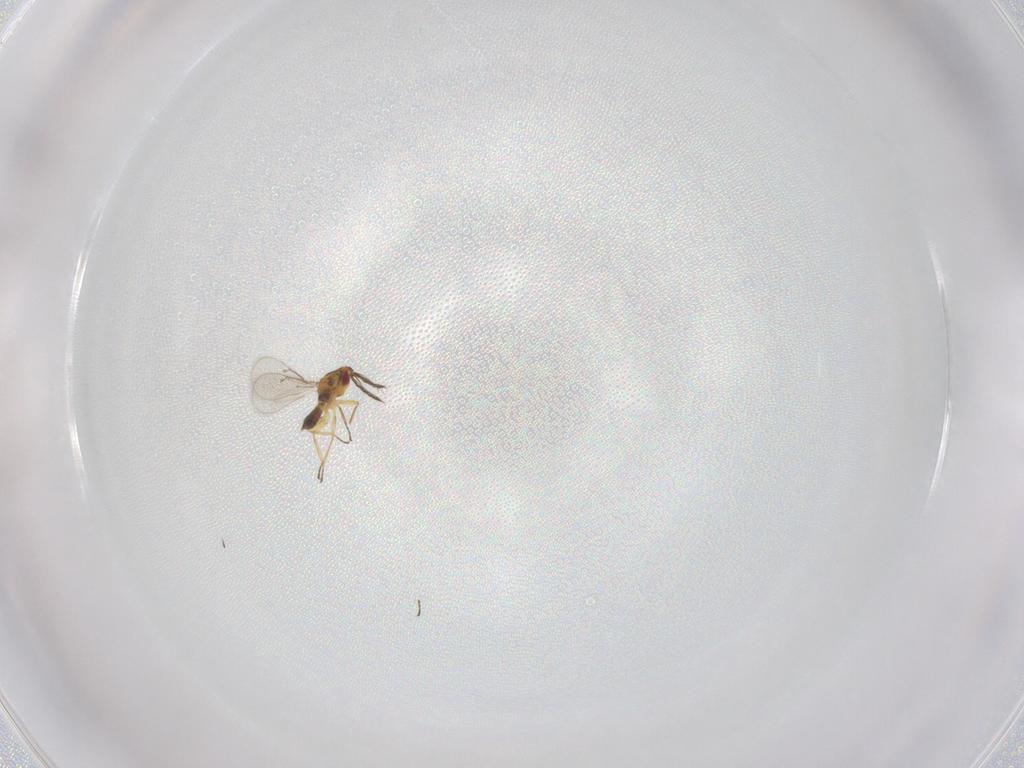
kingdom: Animalia
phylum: Arthropoda
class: Insecta
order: Hymenoptera
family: Eulophidae
